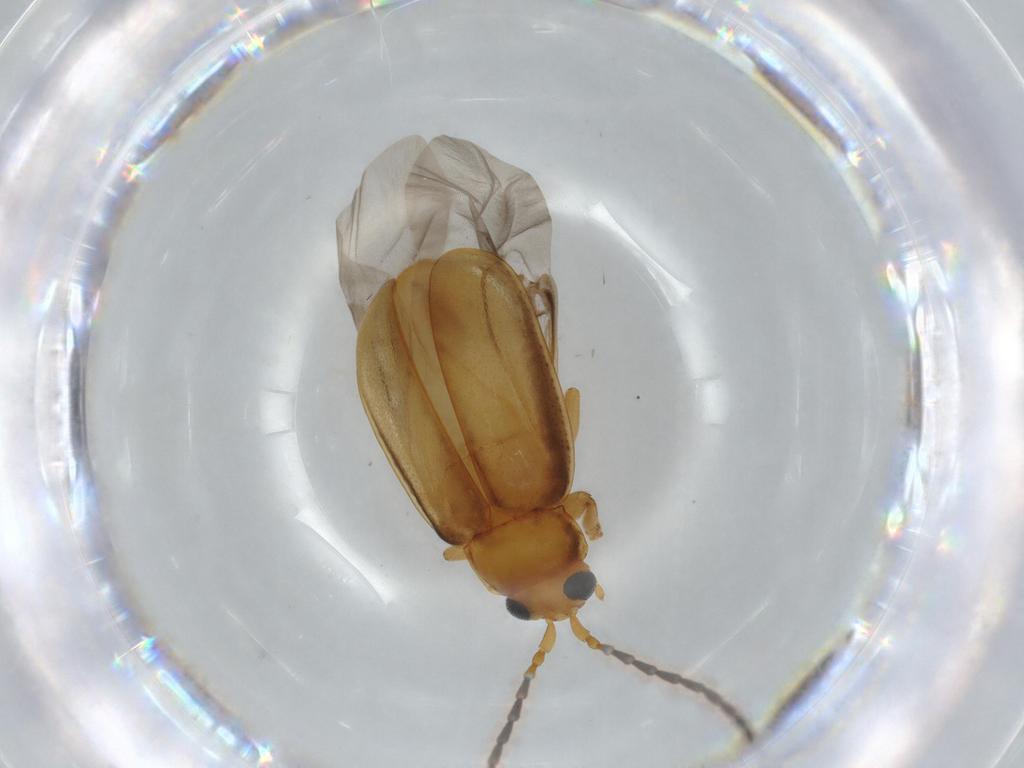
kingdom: Animalia
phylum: Arthropoda
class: Insecta
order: Coleoptera
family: Chrysomelidae
